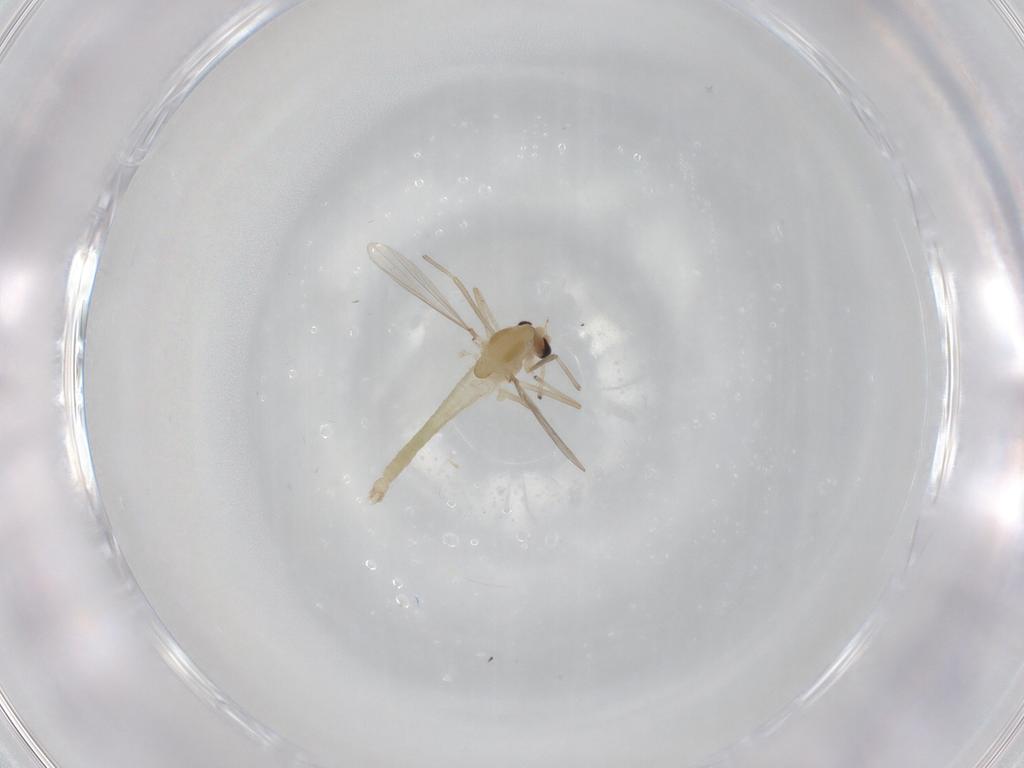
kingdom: Animalia
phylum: Arthropoda
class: Insecta
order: Diptera
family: Chironomidae
